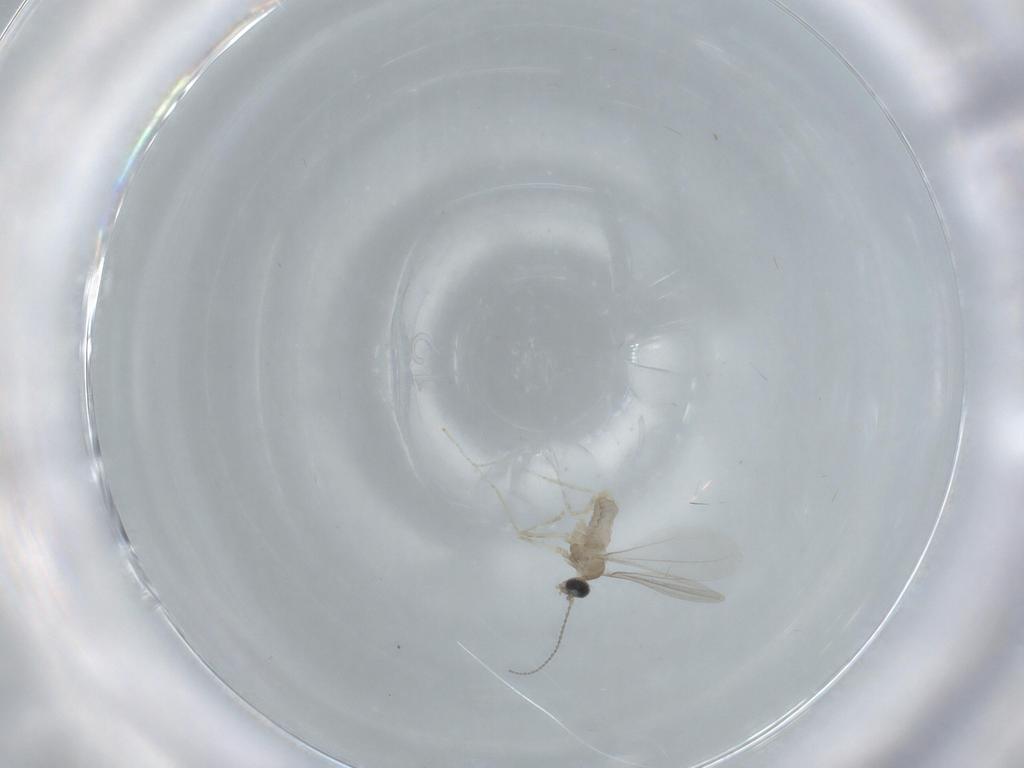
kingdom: Animalia
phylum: Arthropoda
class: Insecta
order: Diptera
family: Cecidomyiidae
